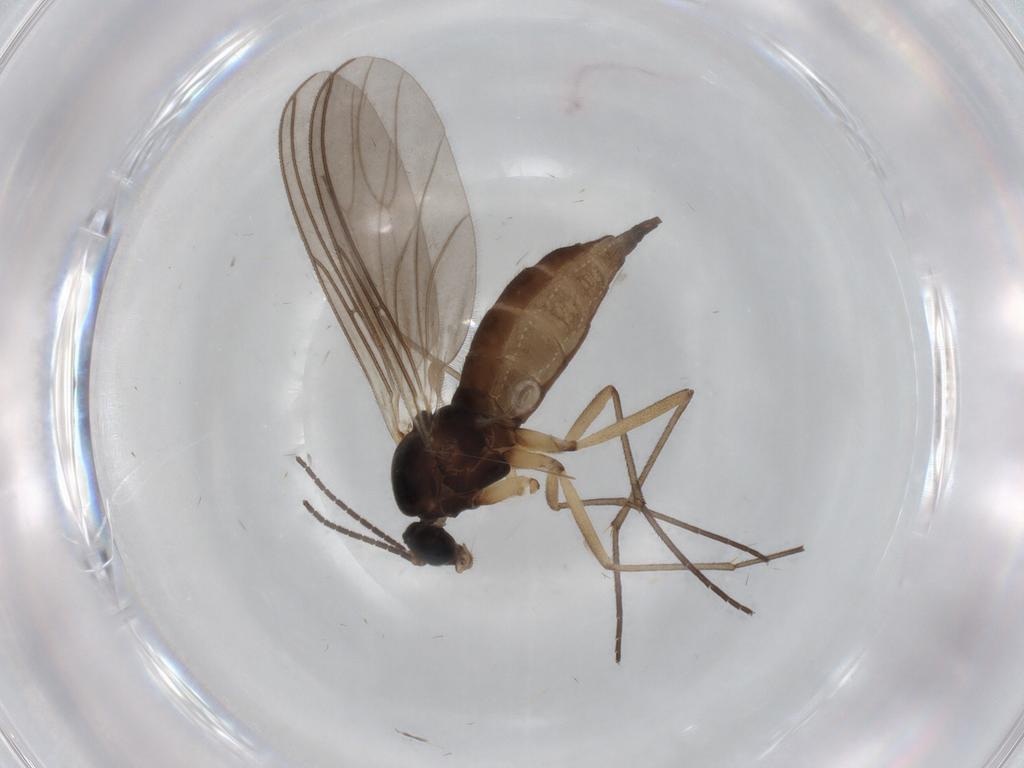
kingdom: Animalia
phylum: Arthropoda
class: Insecta
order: Diptera
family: Sciaridae
